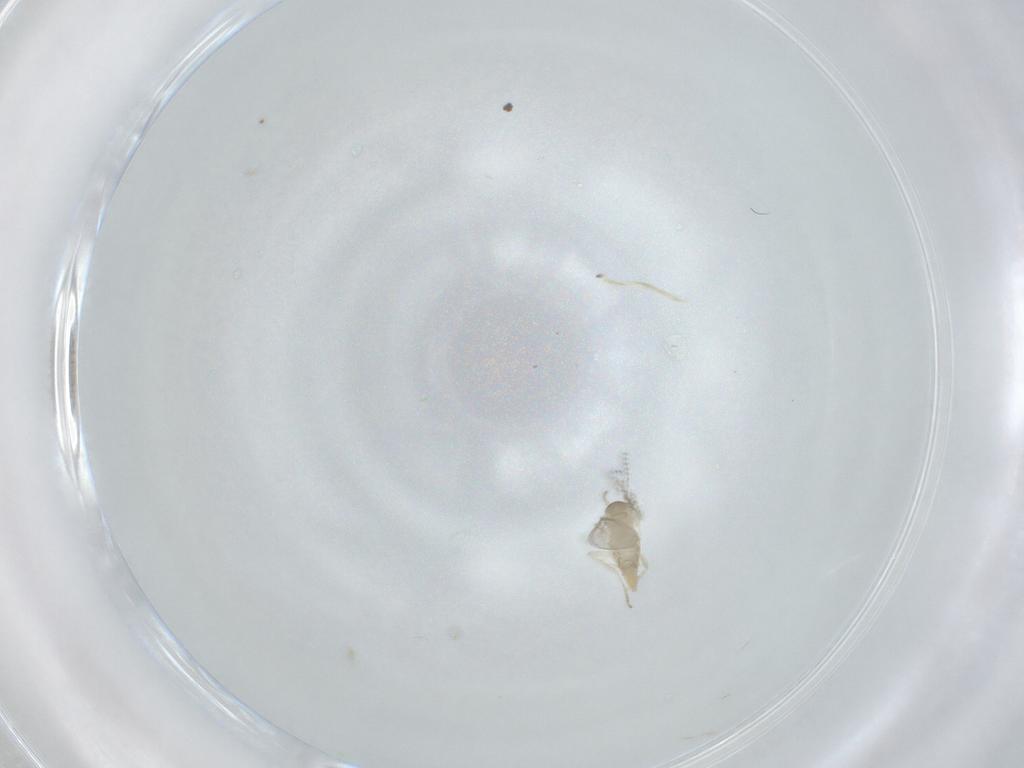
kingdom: Animalia
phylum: Arthropoda
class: Insecta
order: Diptera
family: Cecidomyiidae
